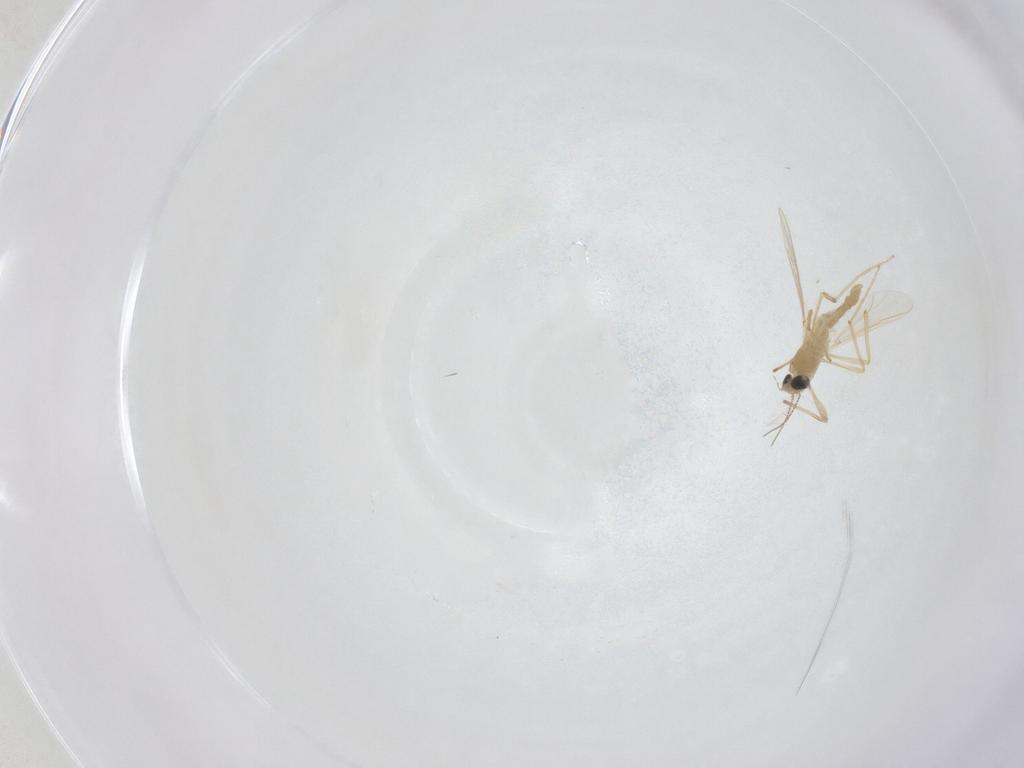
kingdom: Animalia
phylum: Arthropoda
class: Insecta
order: Diptera
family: Chironomidae
